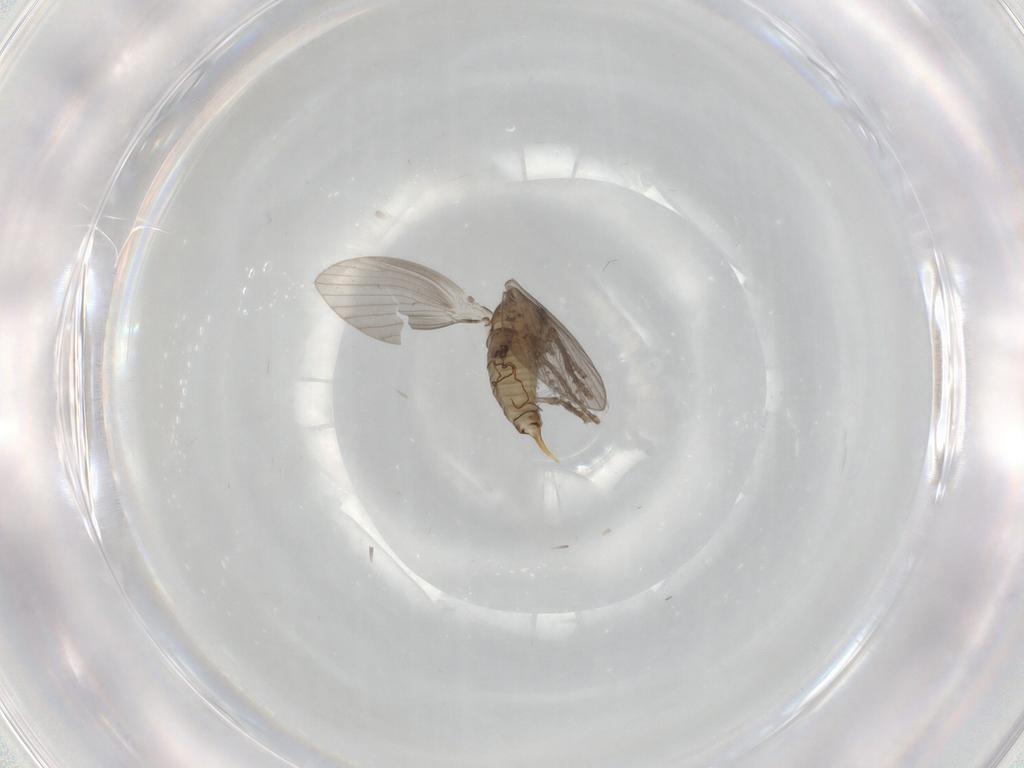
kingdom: Animalia
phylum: Arthropoda
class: Insecta
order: Diptera
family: Psychodidae
